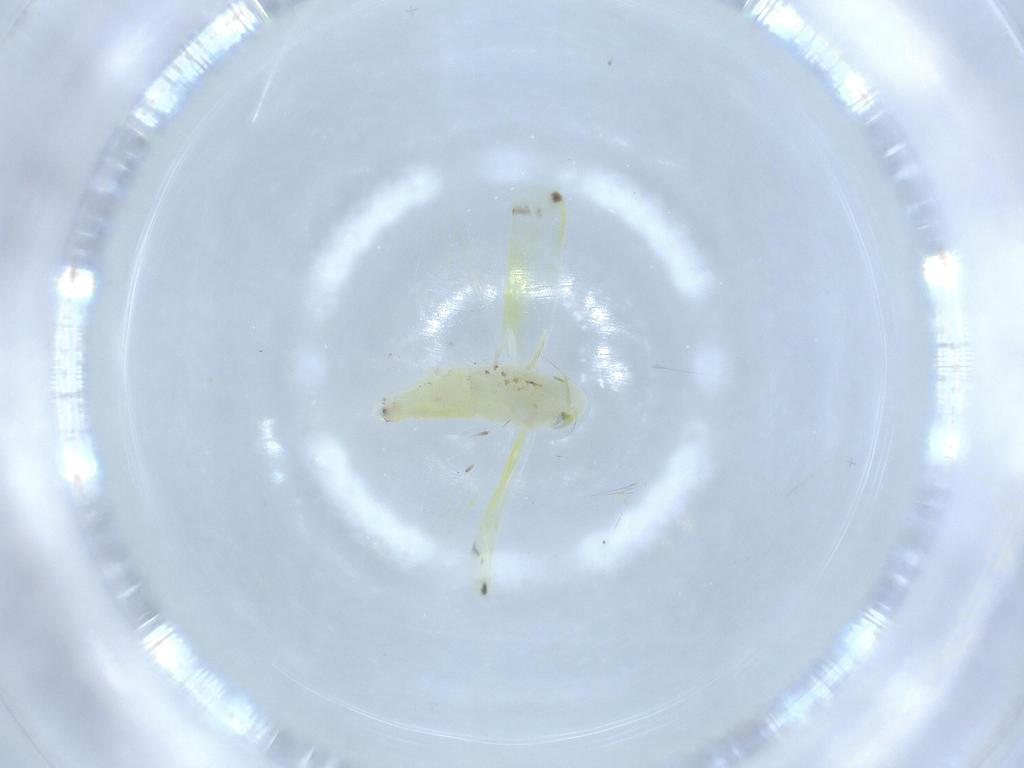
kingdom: Animalia
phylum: Arthropoda
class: Insecta
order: Hemiptera
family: Cicadellidae
